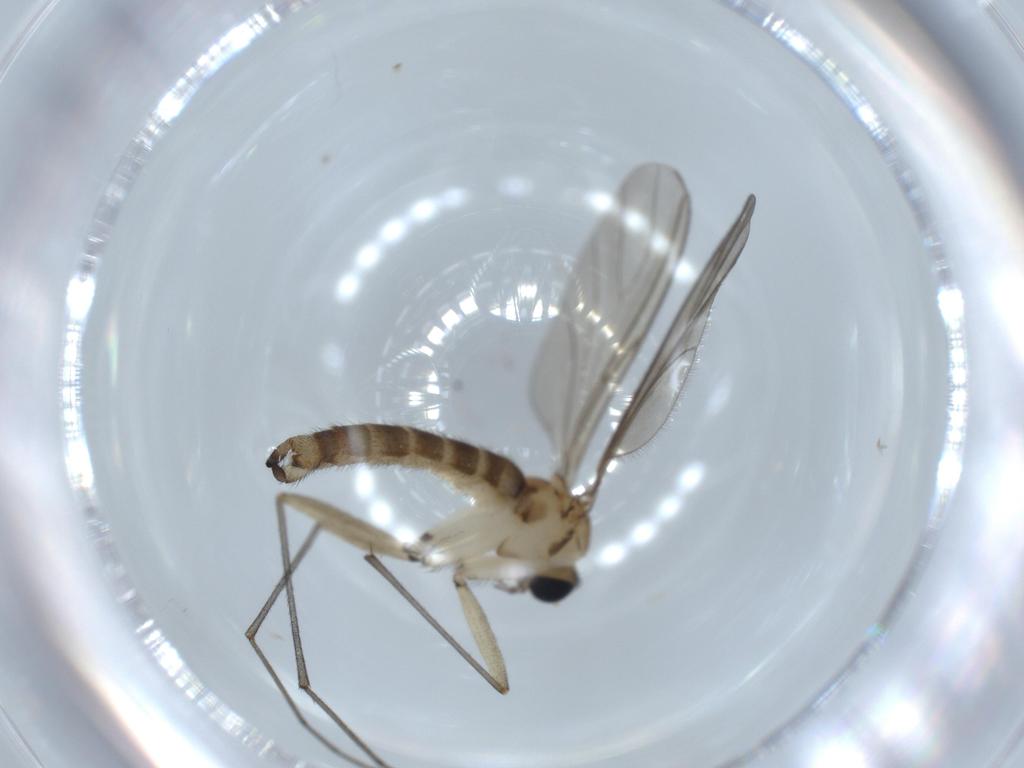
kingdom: Animalia
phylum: Arthropoda
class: Insecta
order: Diptera
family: Sciaridae
